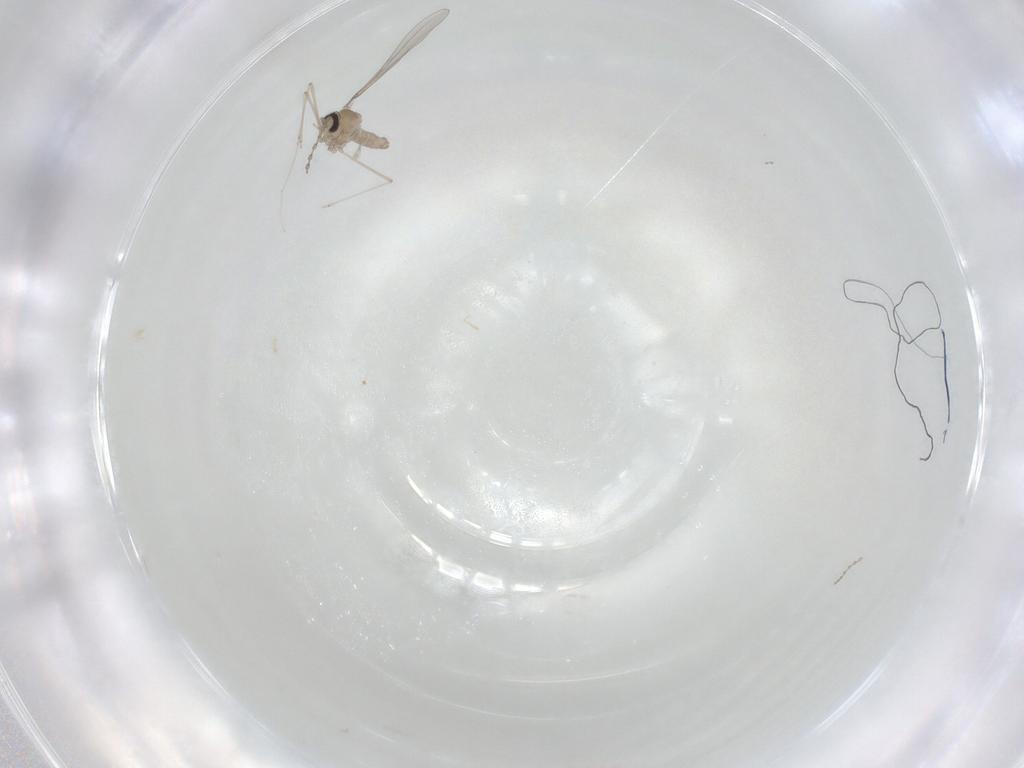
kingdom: Animalia
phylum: Arthropoda
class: Insecta
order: Diptera
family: Cecidomyiidae
